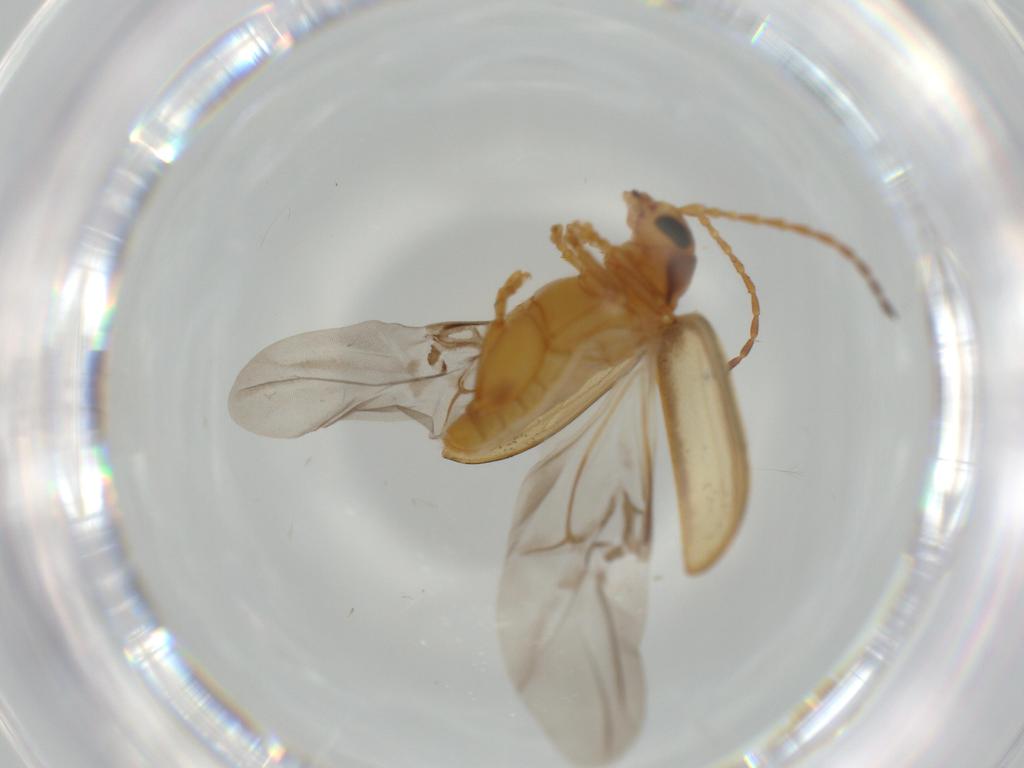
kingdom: Animalia
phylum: Arthropoda
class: Insecta
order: Coleoptera
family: Chrysomelidae
